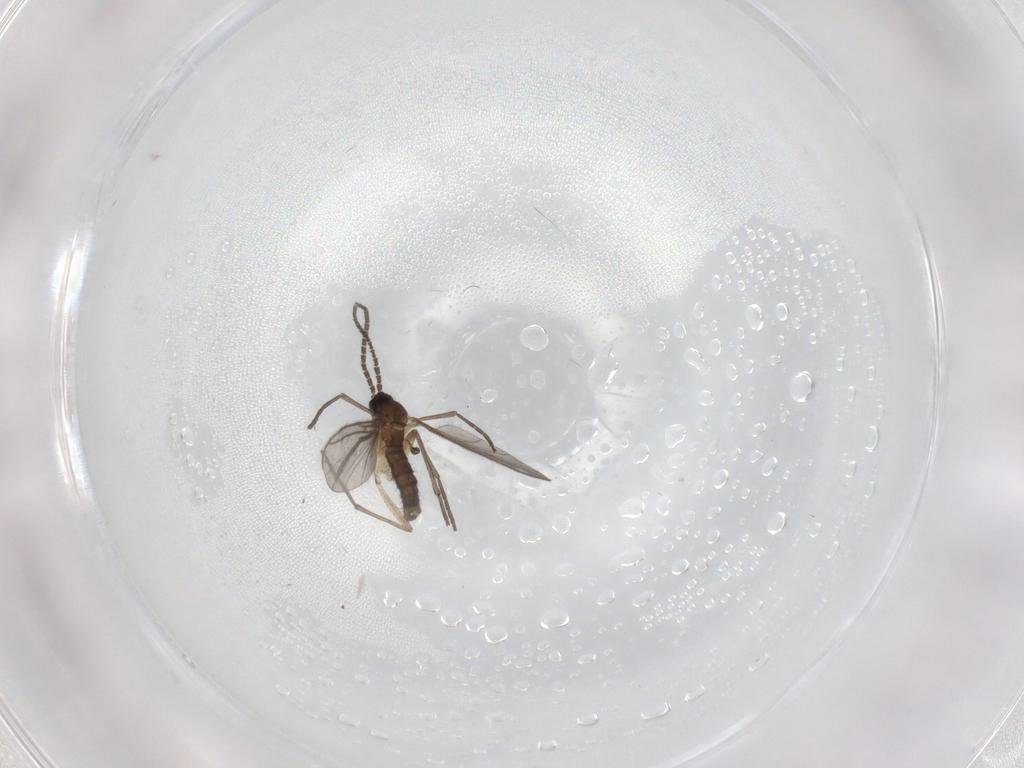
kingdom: Animalia
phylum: Arthropoda
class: Insecta
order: Diptera
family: Sciaridae
